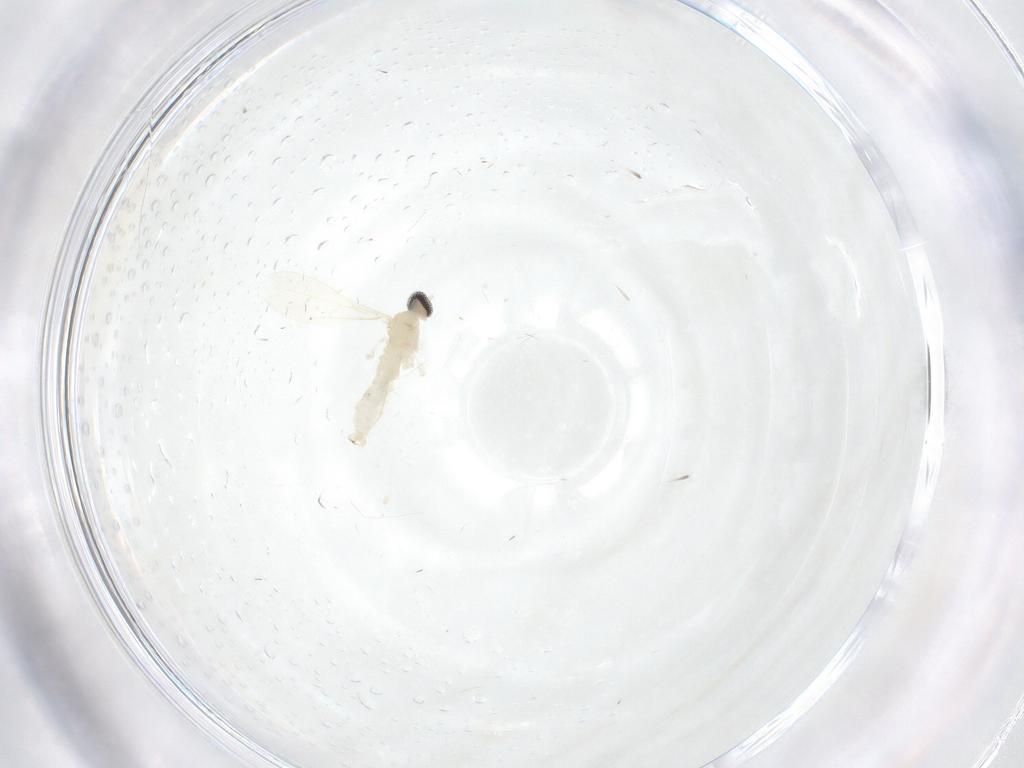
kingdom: Animalia
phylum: Arthropoda
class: Insecta
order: Diptera
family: Cecidomyiidae
